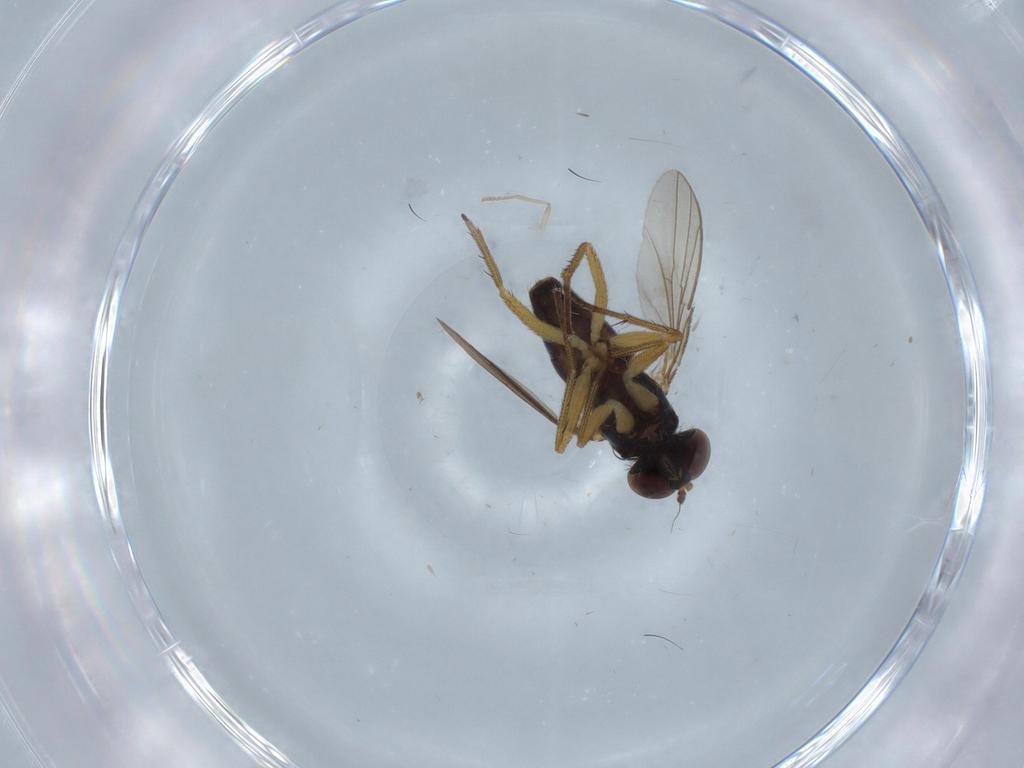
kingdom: Animalia
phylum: Arthropoda
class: Insecta
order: Diptera
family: Psychodidae
